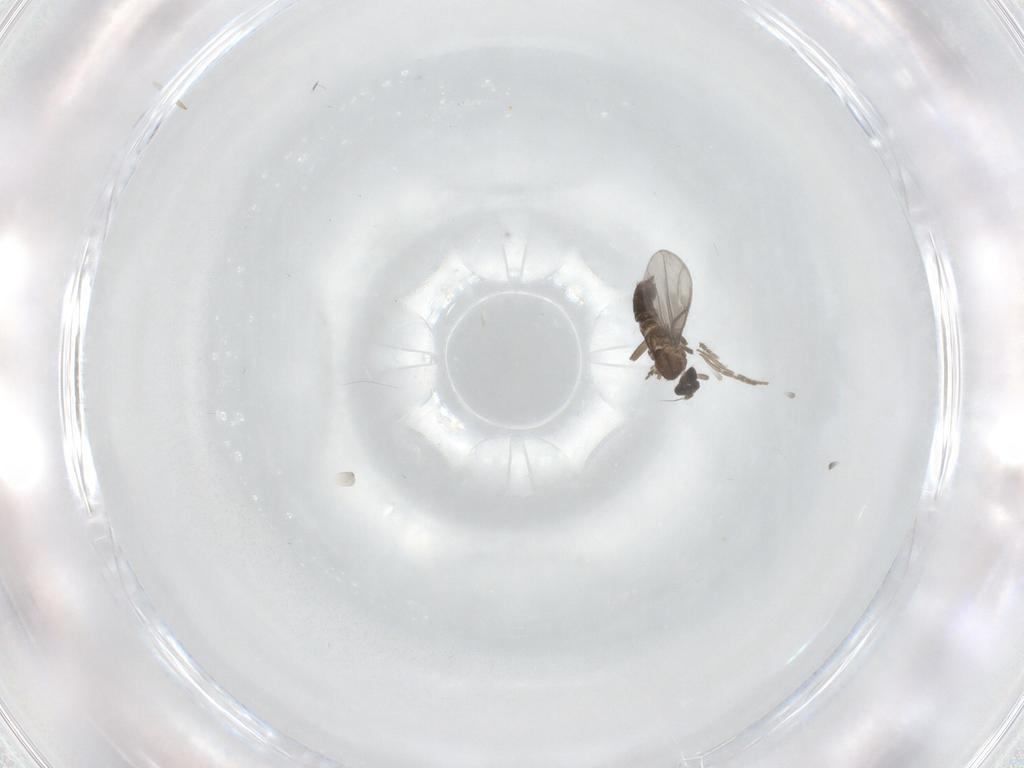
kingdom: Animalia
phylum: Arthropoda
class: Insecta
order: Diptera
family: Phoridae
